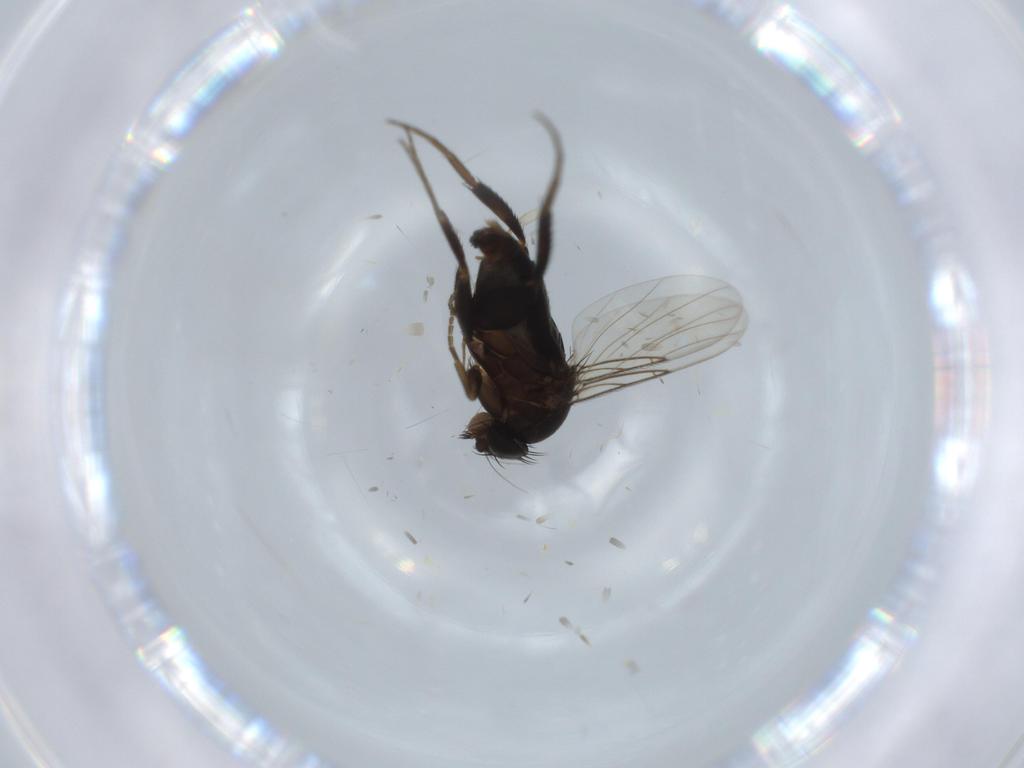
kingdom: Animalia
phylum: Arthropoda
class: Insecta
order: Diptera
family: Phoridae
